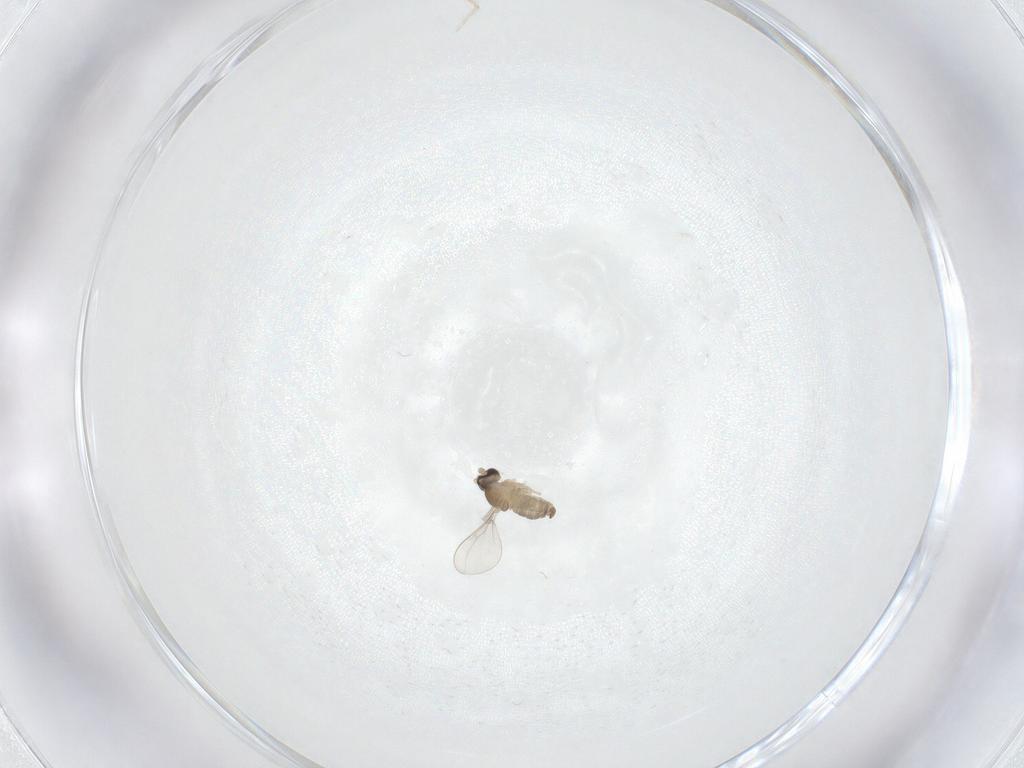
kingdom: Animalia
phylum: Arthropoda
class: Insecta
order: Diptera
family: Cecidomyiidae
